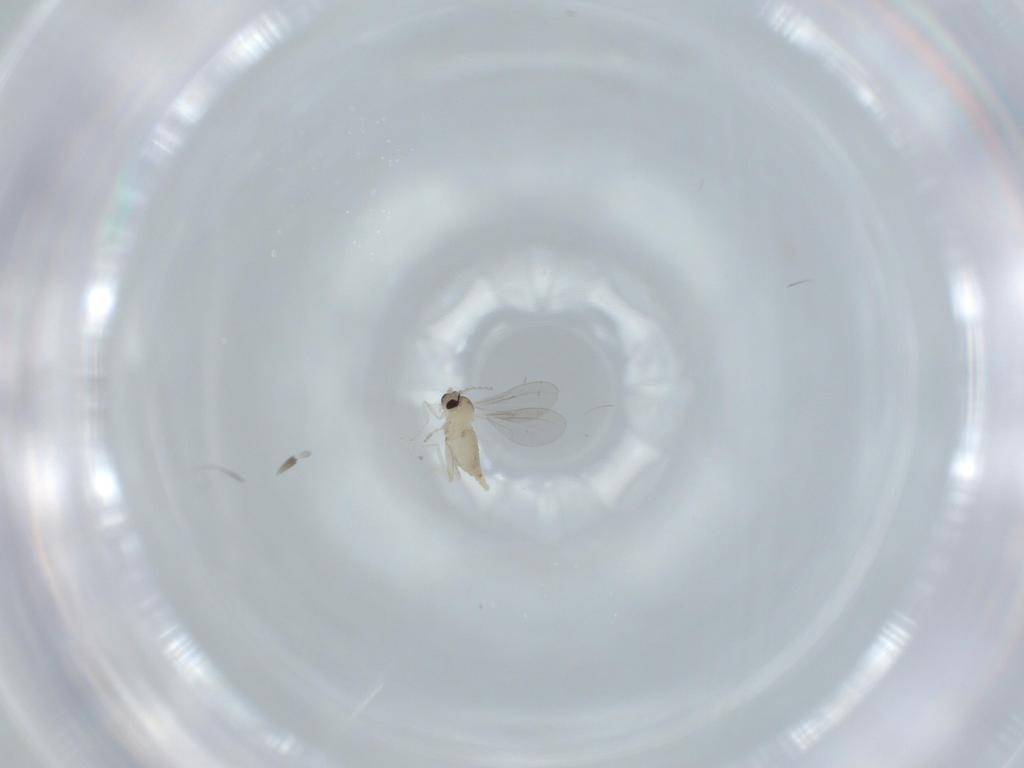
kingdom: Animalia
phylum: Arthropoda
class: Insecta
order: Diptera
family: Cecidomyiidae
